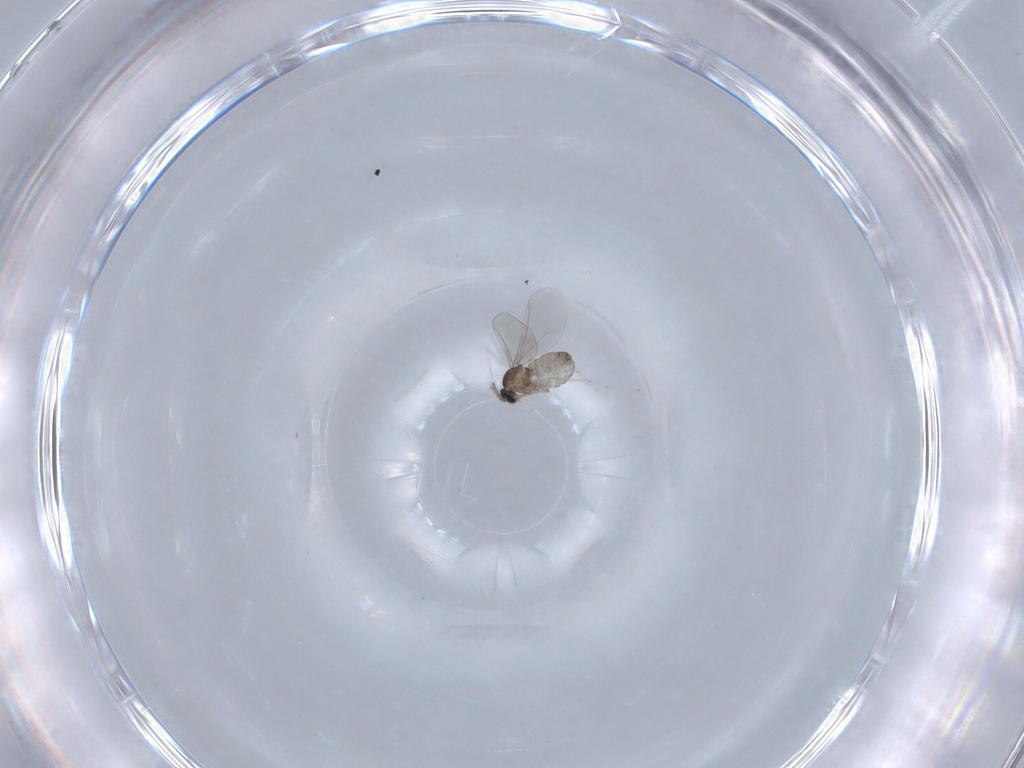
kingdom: Animalia
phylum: Arthropoda
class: Insecta
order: Diptera
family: Cecidomyiidae
